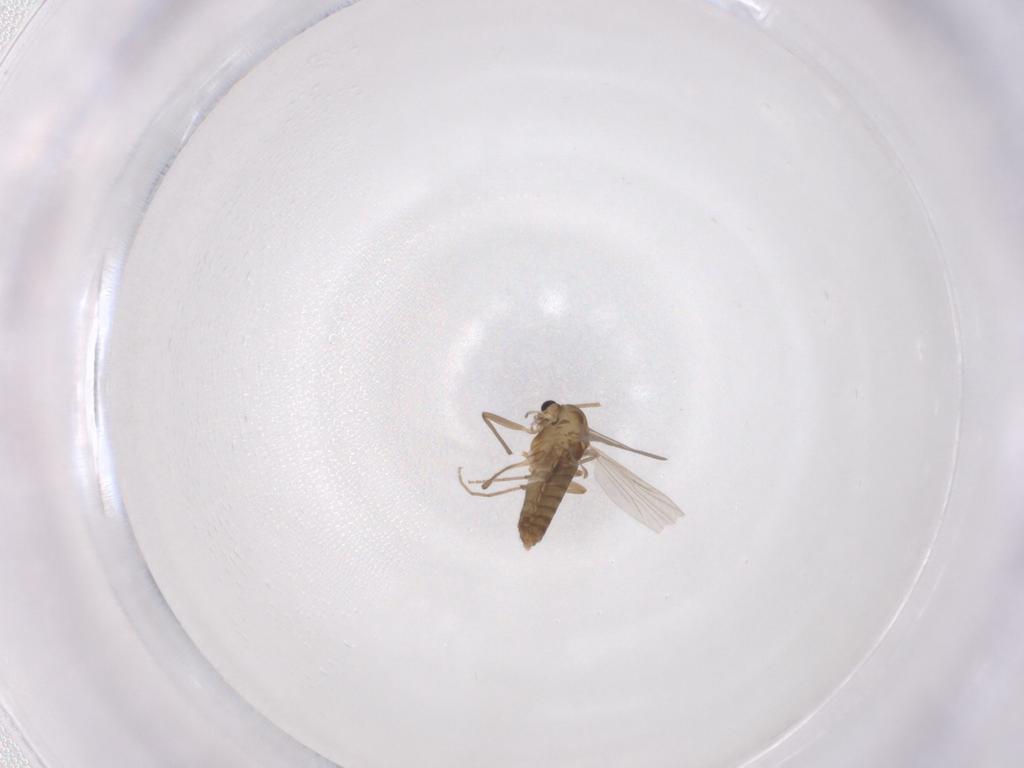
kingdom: Animalia
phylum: Arthropoda
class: Insecta
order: Diptera
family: Chironomidae
